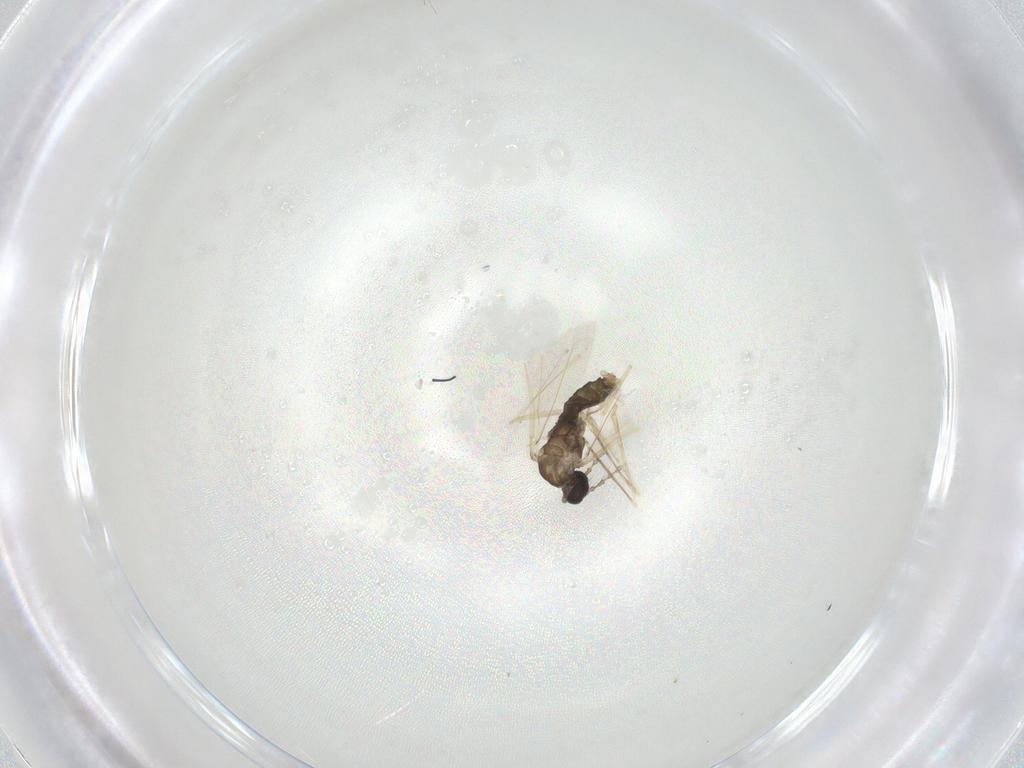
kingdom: Animalia
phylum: Arthropoda
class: Insecta
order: Diptera
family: Cecidomyiidae
